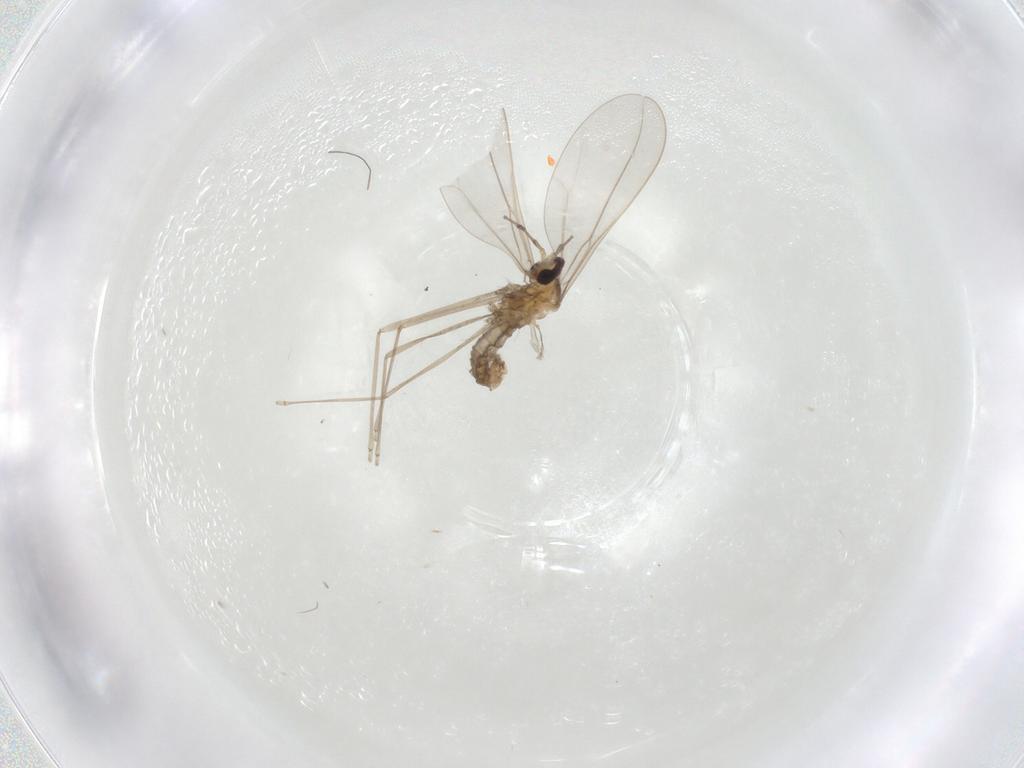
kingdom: Animalia
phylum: Arthropoda
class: Insecta
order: Diptera
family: Cecidomyiidae
